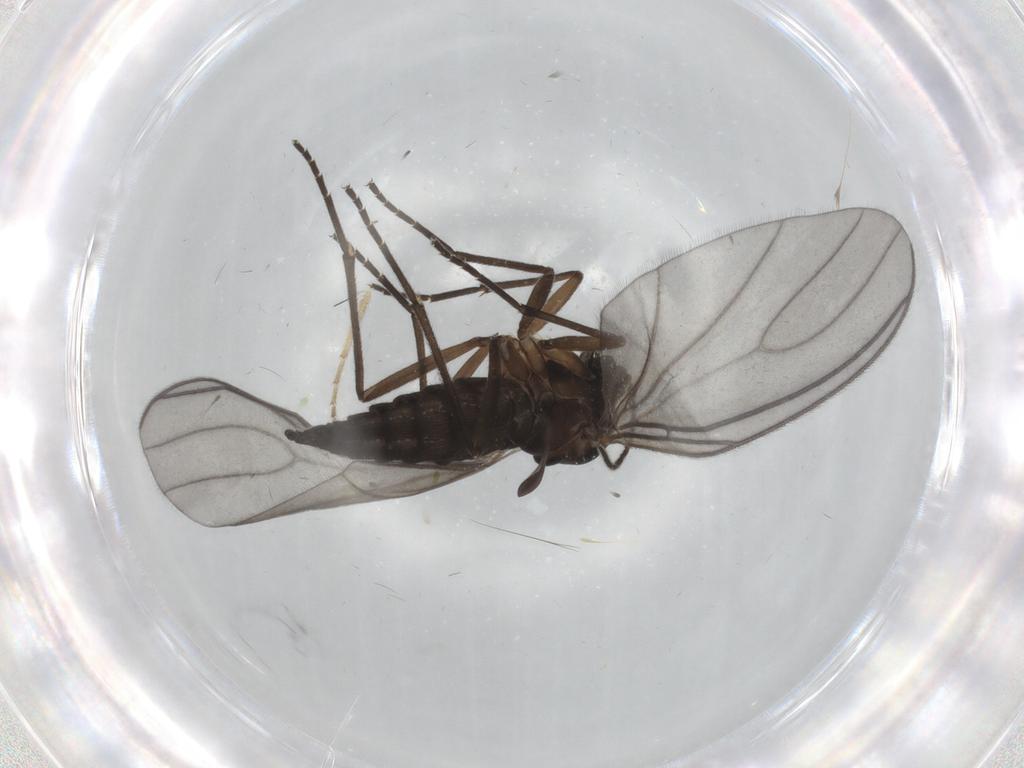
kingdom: Animalia
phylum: Arthropoda
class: Insecta
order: Diptera
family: Sciaridae
